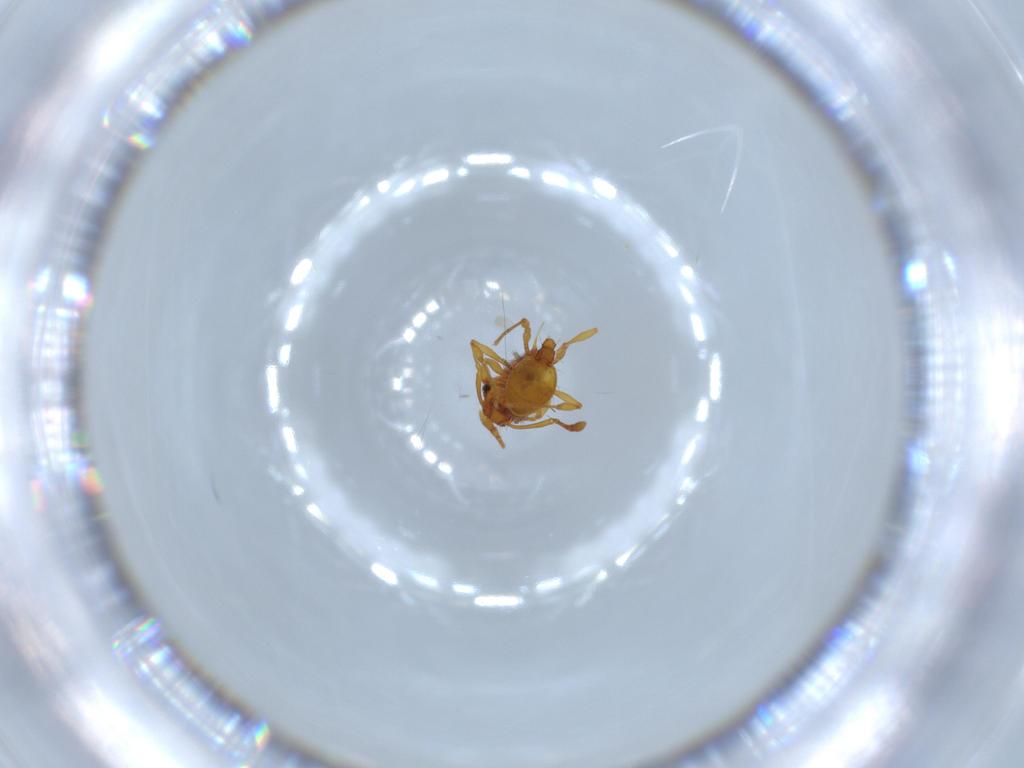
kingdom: Animalia
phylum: Arthropoda
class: Insecta
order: Hymenoptera
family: Formicidae
